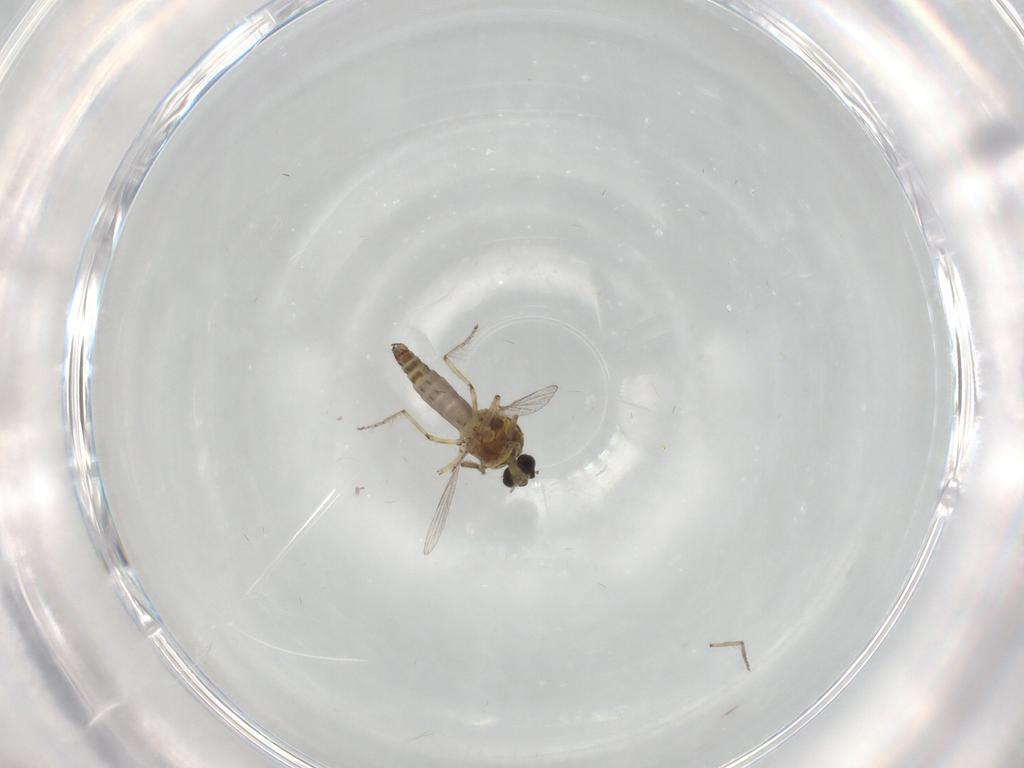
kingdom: Animalia
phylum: Arthropoda
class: Insecta
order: Diptera
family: Ceratopogonidae
